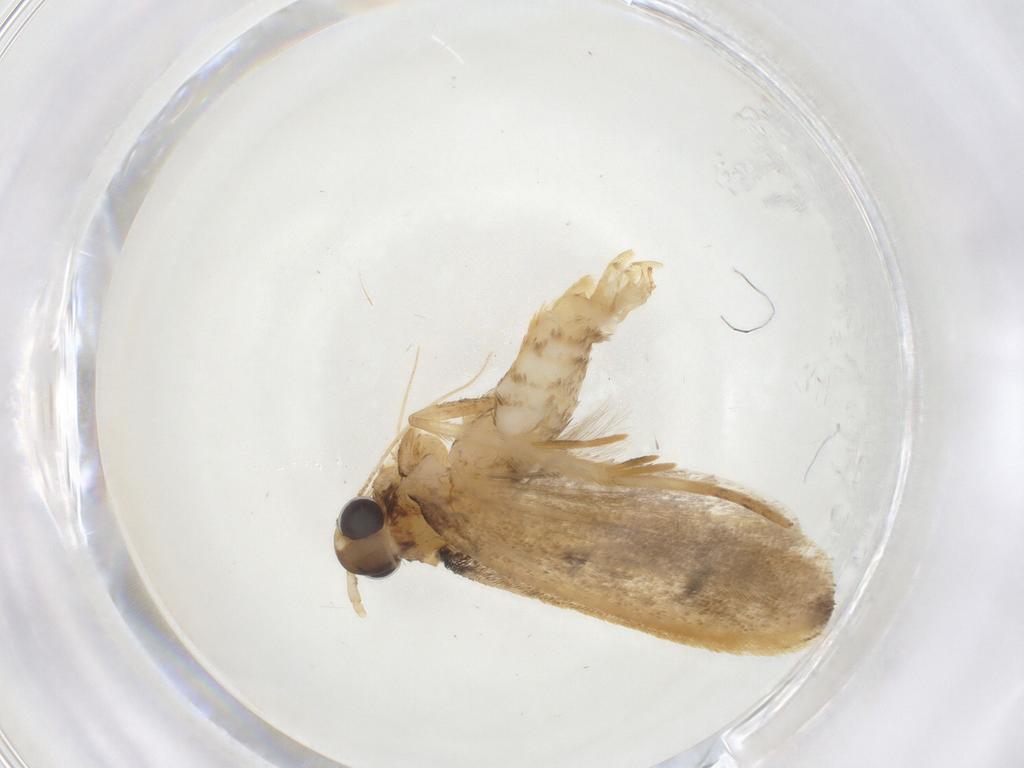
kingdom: Animalia
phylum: Arthropoda
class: Insecta
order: Lepidoptera
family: Lecithoceridae
